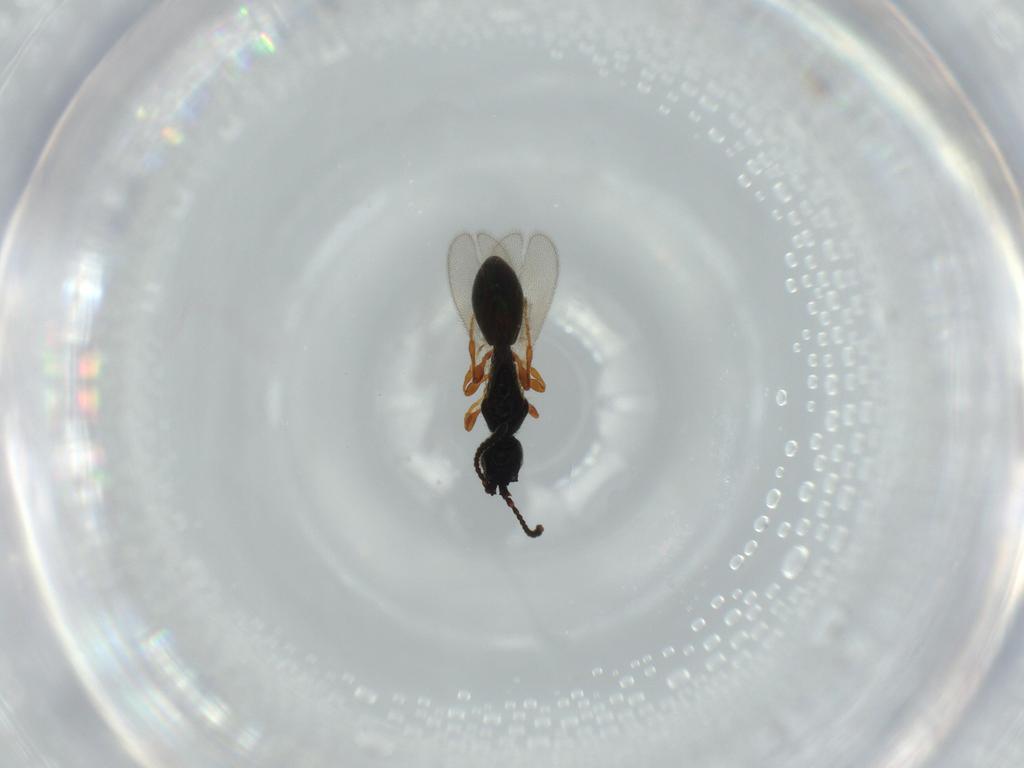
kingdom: Animalia
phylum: Arthropoda
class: Insecta
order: Hymenoptera
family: Diapriidae
